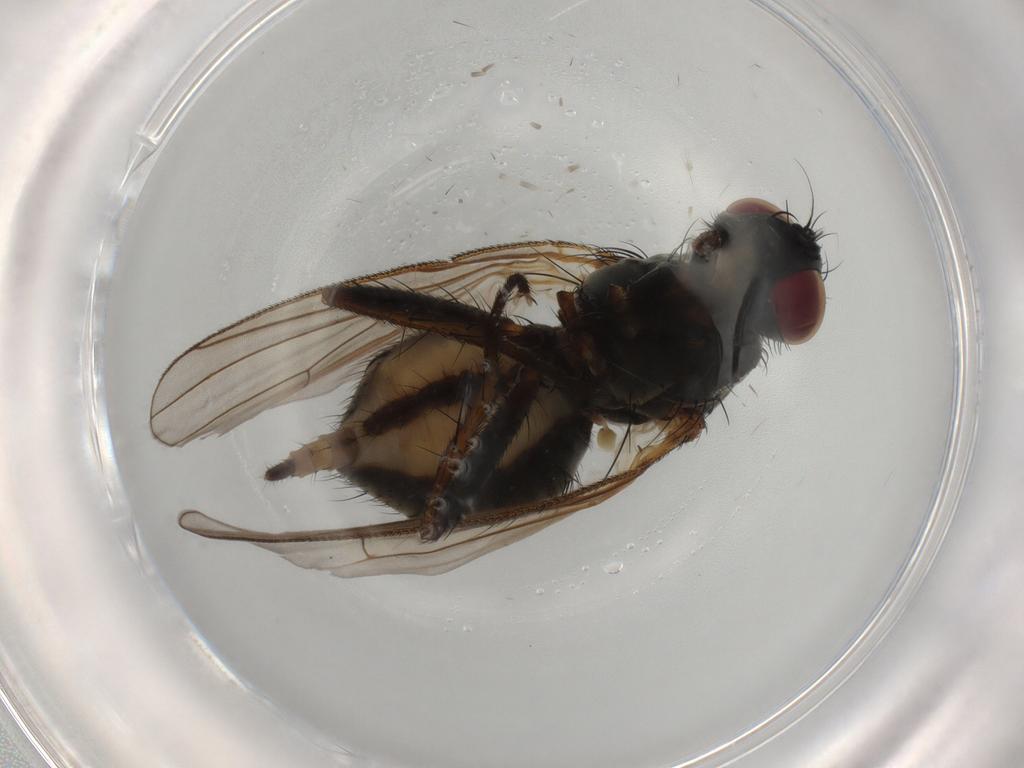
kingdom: Animalia
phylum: Arthropoda
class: Insecta
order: Diptera
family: Muscidae
